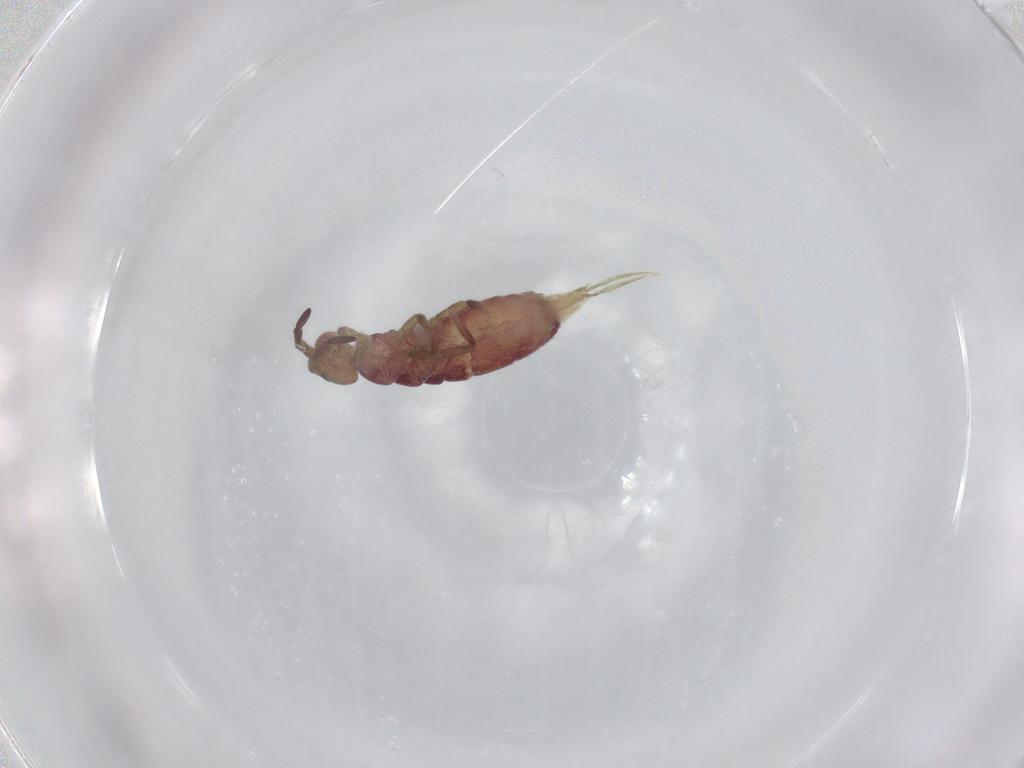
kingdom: Animalia
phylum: Arthropoda
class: Collembola
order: Entomobryomorpha
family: Isotomidae
